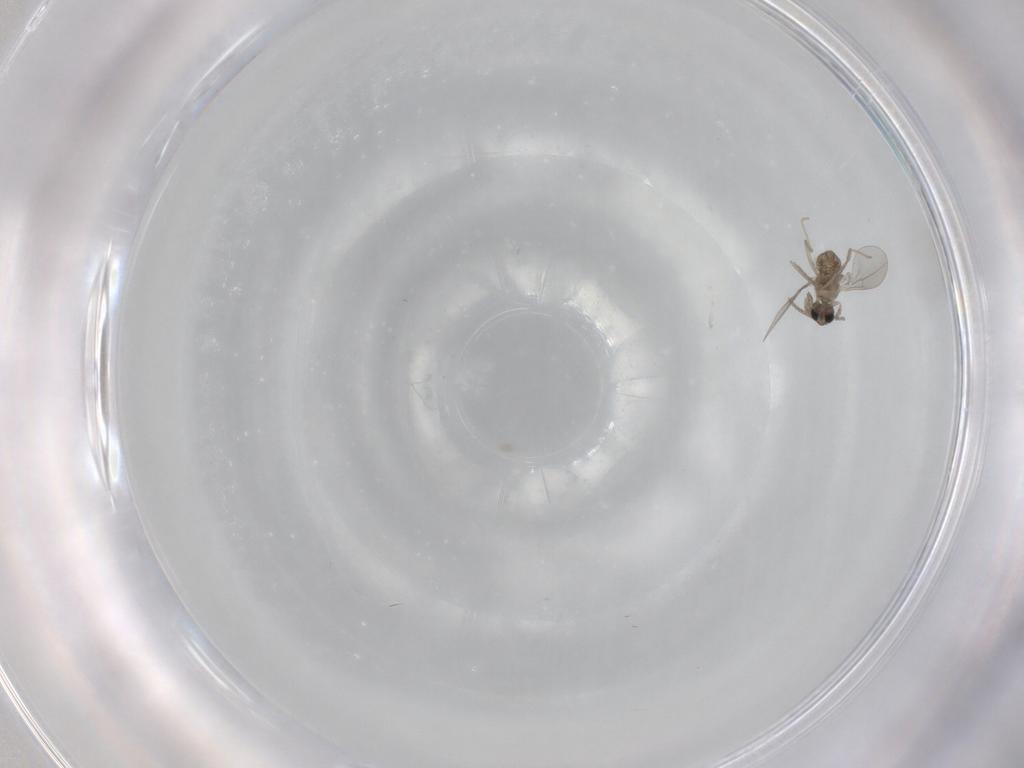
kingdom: Animalia
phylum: Arthropoda
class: Insecta
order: Diptera
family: Cecidomyiidae
